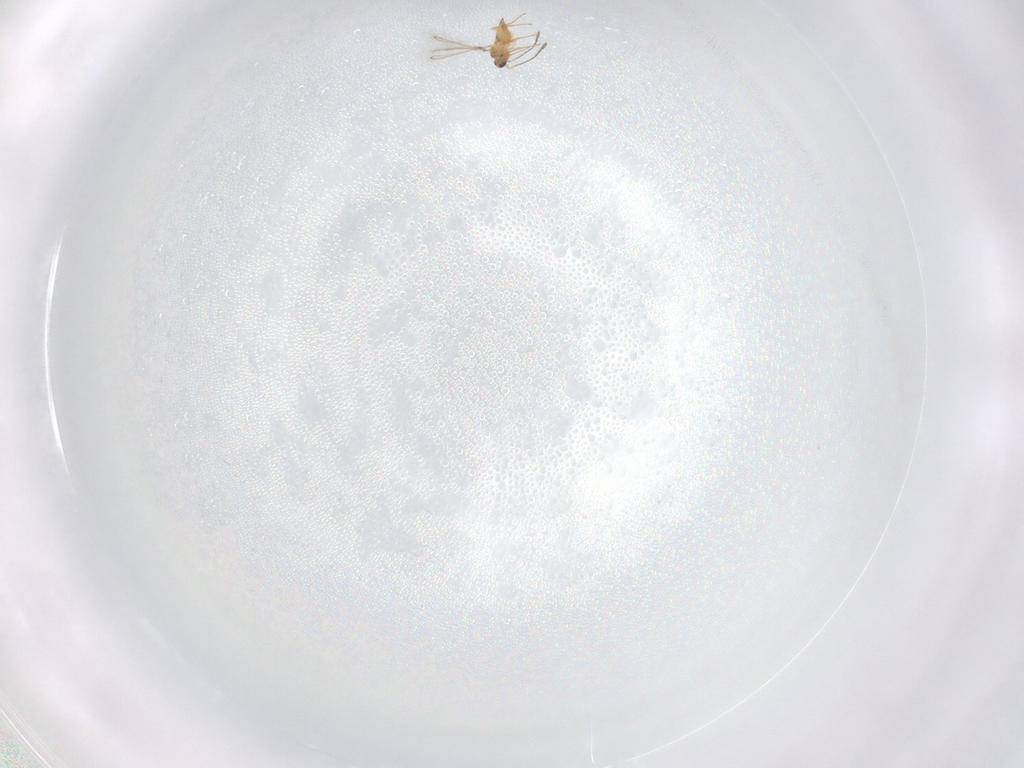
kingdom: Animalia
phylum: Arthropoda
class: Insecta
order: Hymenoptera
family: Mymaridae
